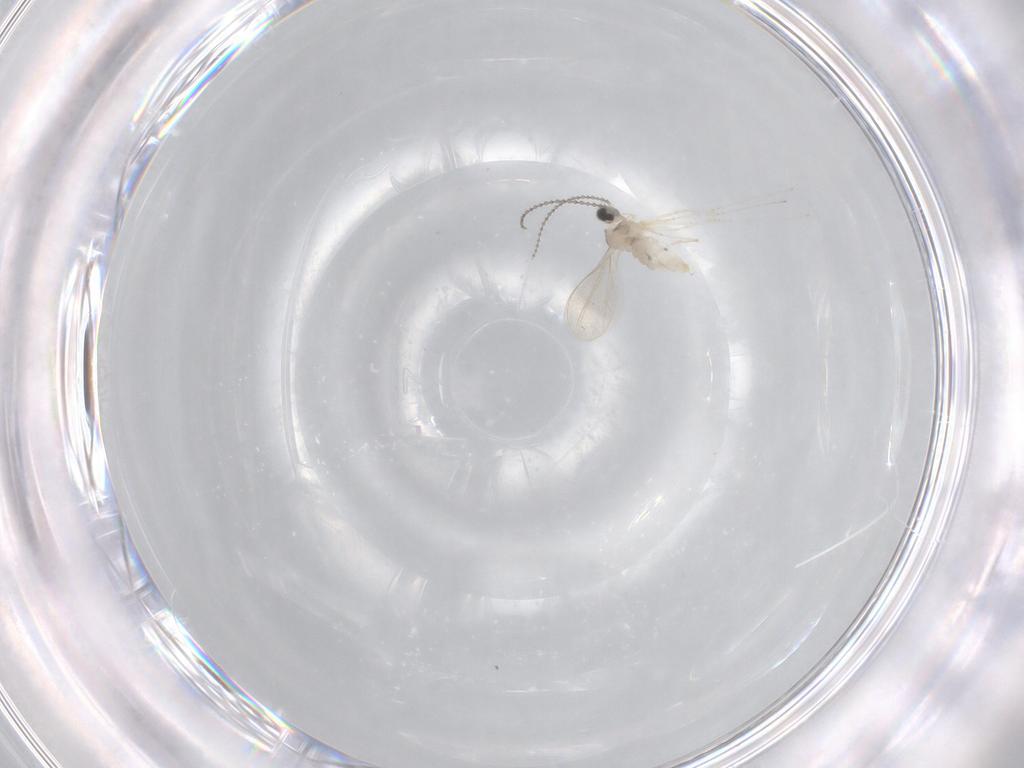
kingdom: Animalia
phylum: Arthropoda
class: Insecta
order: Diptera
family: Cecidomyiidae
